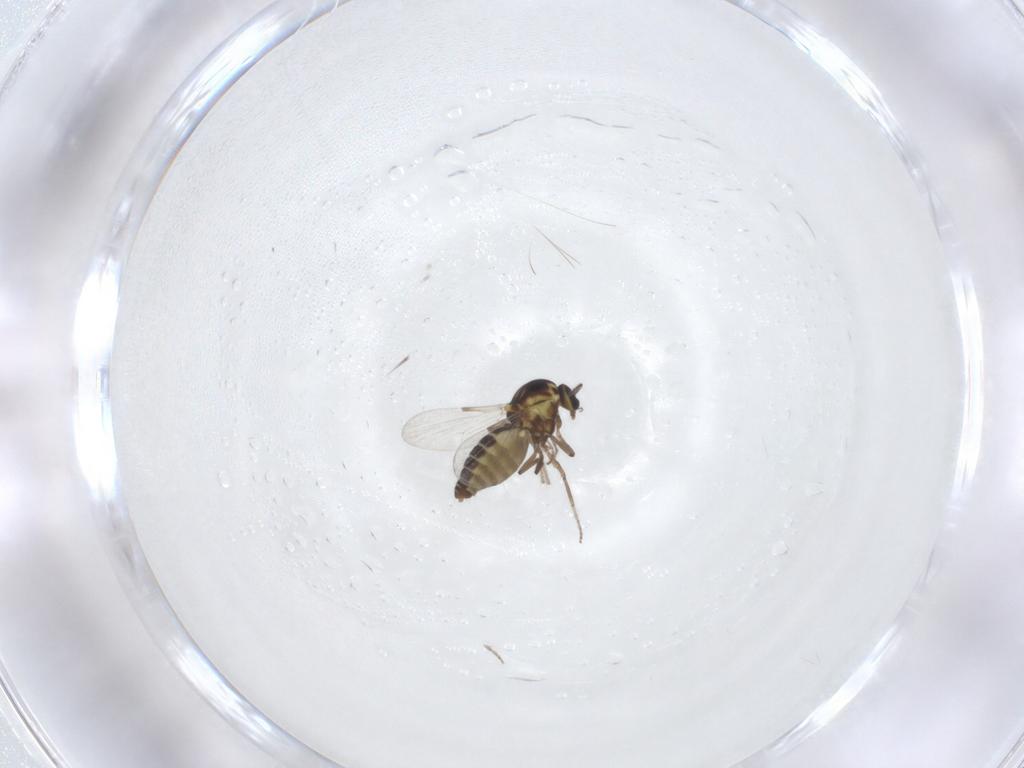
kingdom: Animalia
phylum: Arthropoda
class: Insecta
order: Diptera
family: Ceratopogonidae
